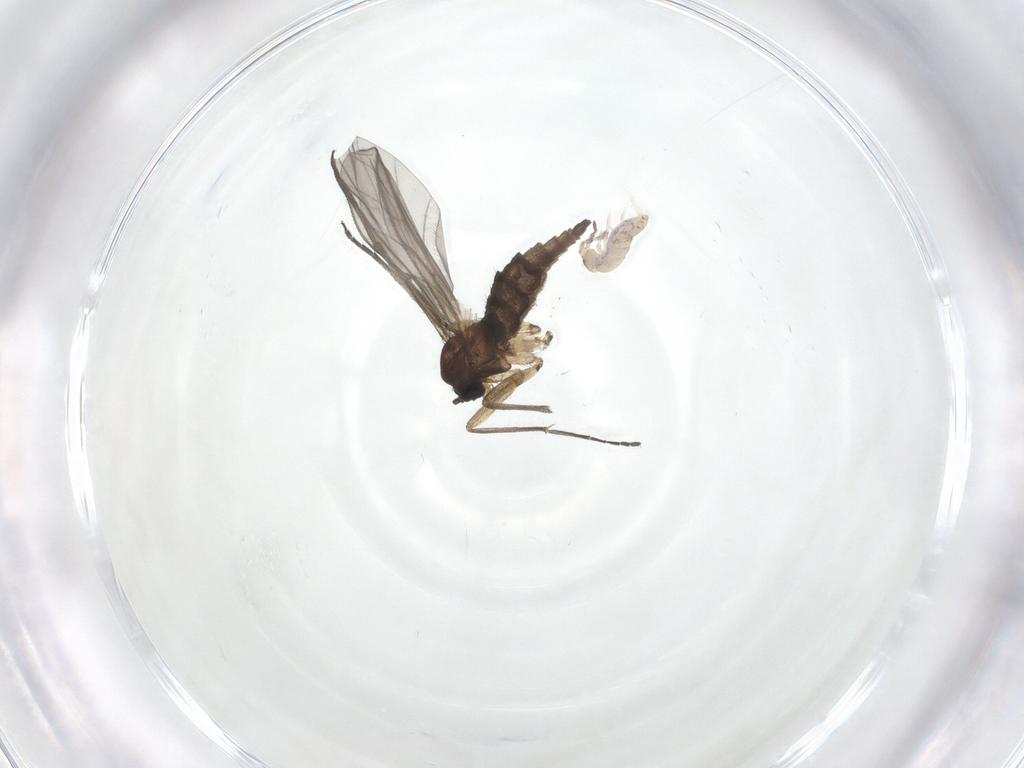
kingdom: Animalia
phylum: Arthropoda
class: Insecta
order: Diptera
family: Sciaridae
